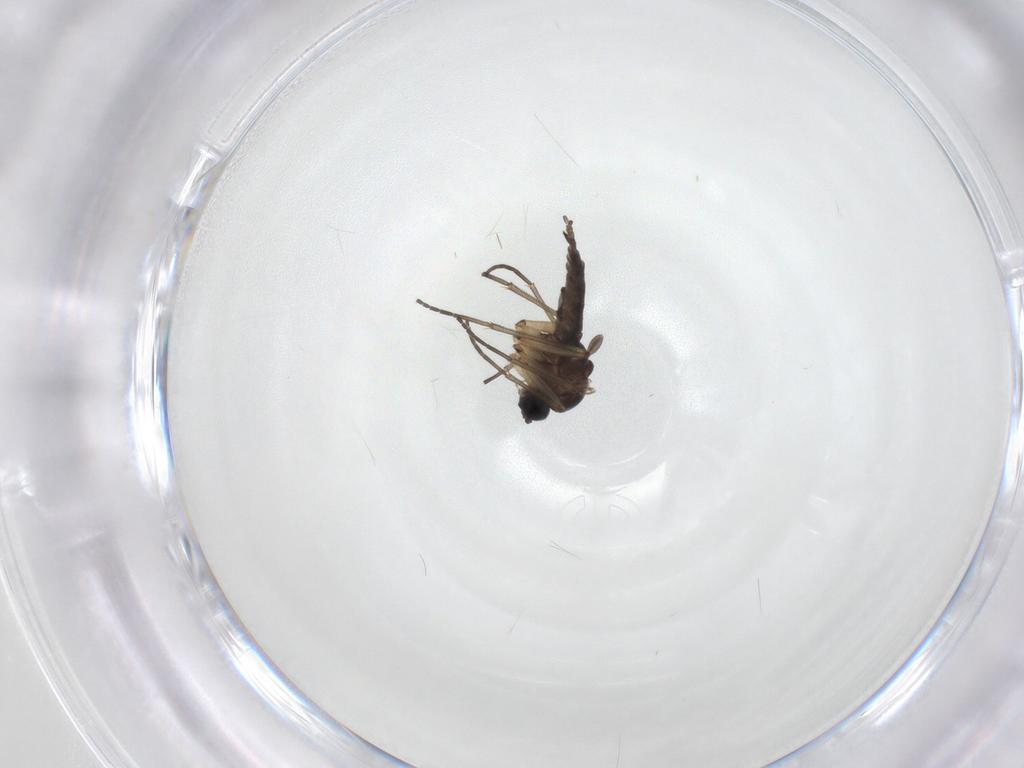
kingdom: Animalia
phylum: Arthropoda
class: Insecta
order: Diptera
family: Sciaridae
